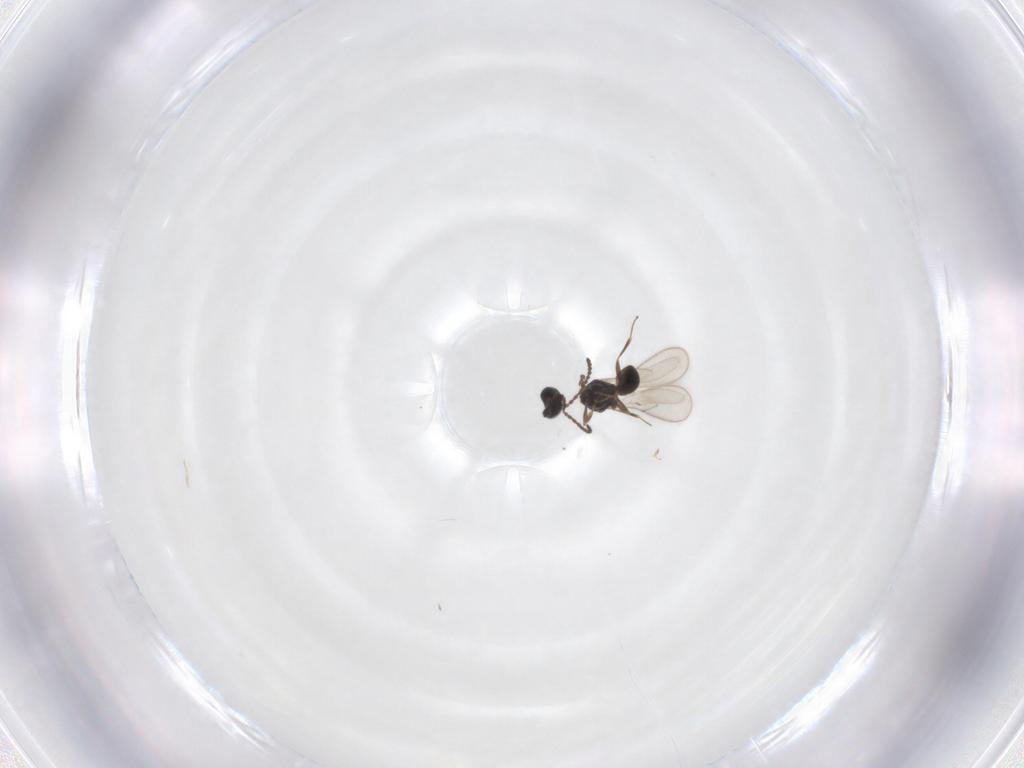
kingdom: Animalia
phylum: Arthropoda
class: Insecta
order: Hymenoptera
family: Scelionidae
